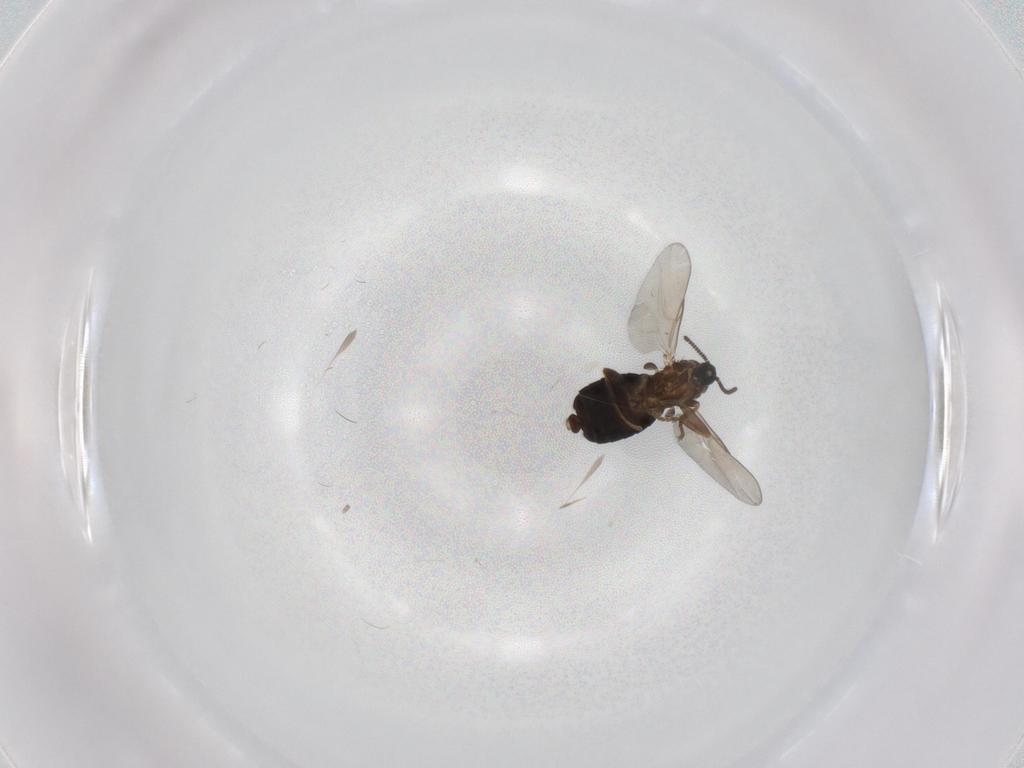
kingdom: Animalia
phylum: Arthropoda
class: Insecta
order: Diptera
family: Scatopsidae
